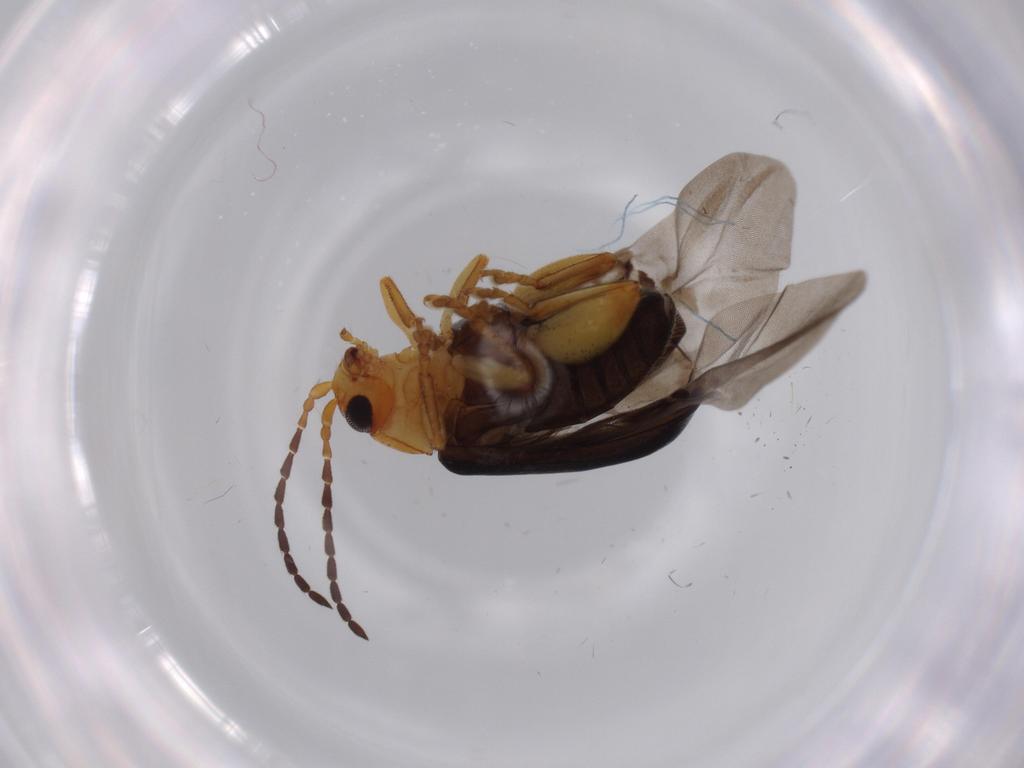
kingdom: Animalia
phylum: Arthropoda
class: Insecta
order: Coleoptera
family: Chrysomelidae
